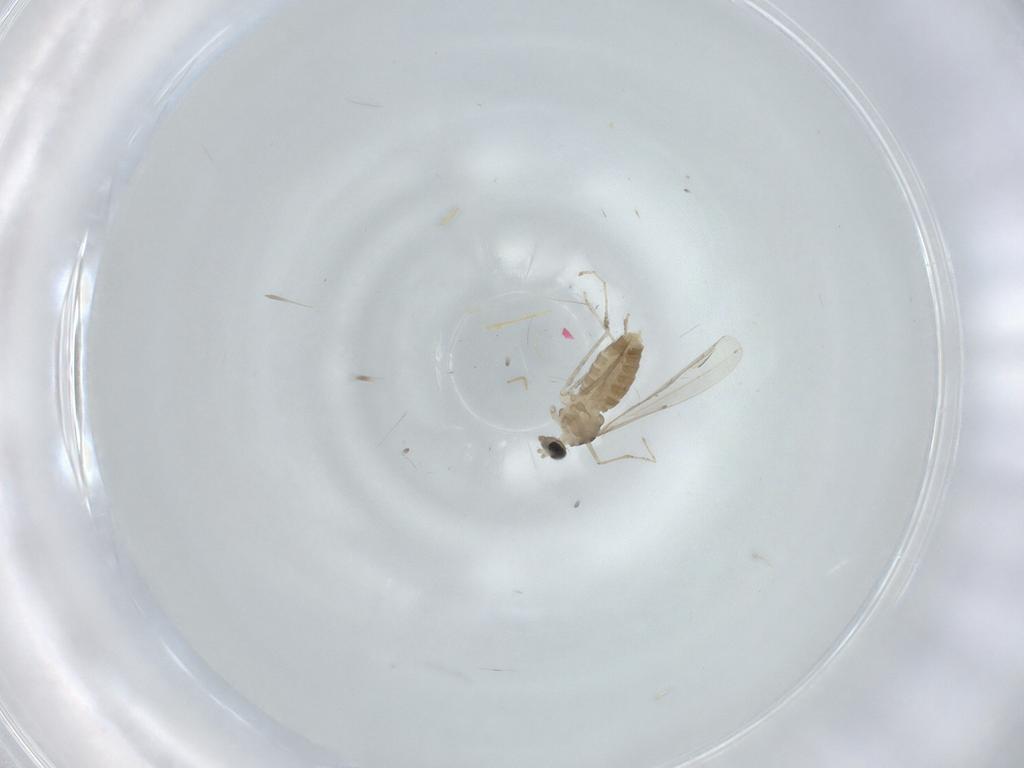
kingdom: Animalia
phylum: Arthropoda
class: Insecta
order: Diptera
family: Cecidomyiidae
